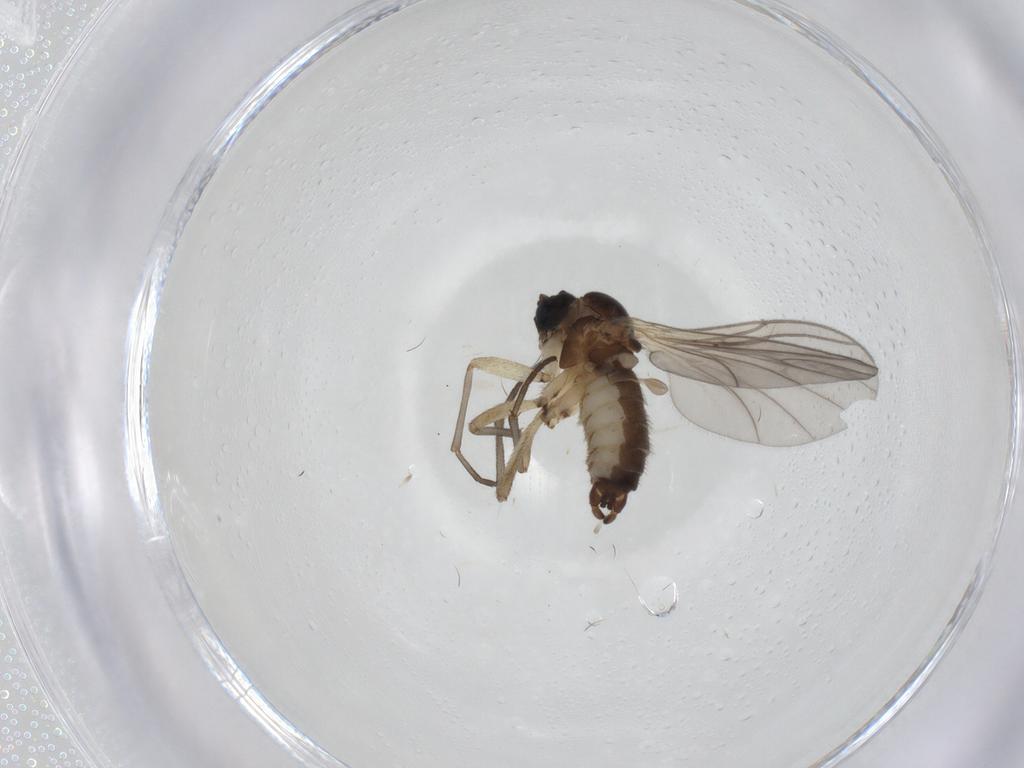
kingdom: Animalia
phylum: Arthropoda
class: Insecta
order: Diptera
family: Sciaridae
